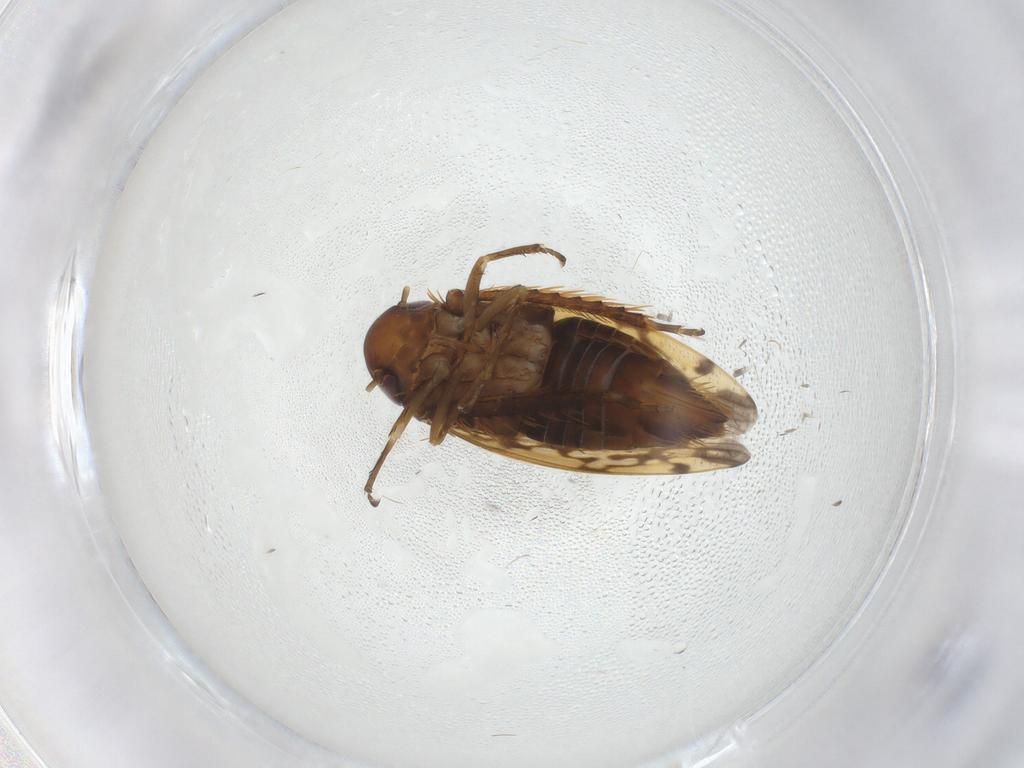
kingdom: Animalia
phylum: Arthropoda
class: Insecta
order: Hemiptera
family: Cicadellidae
